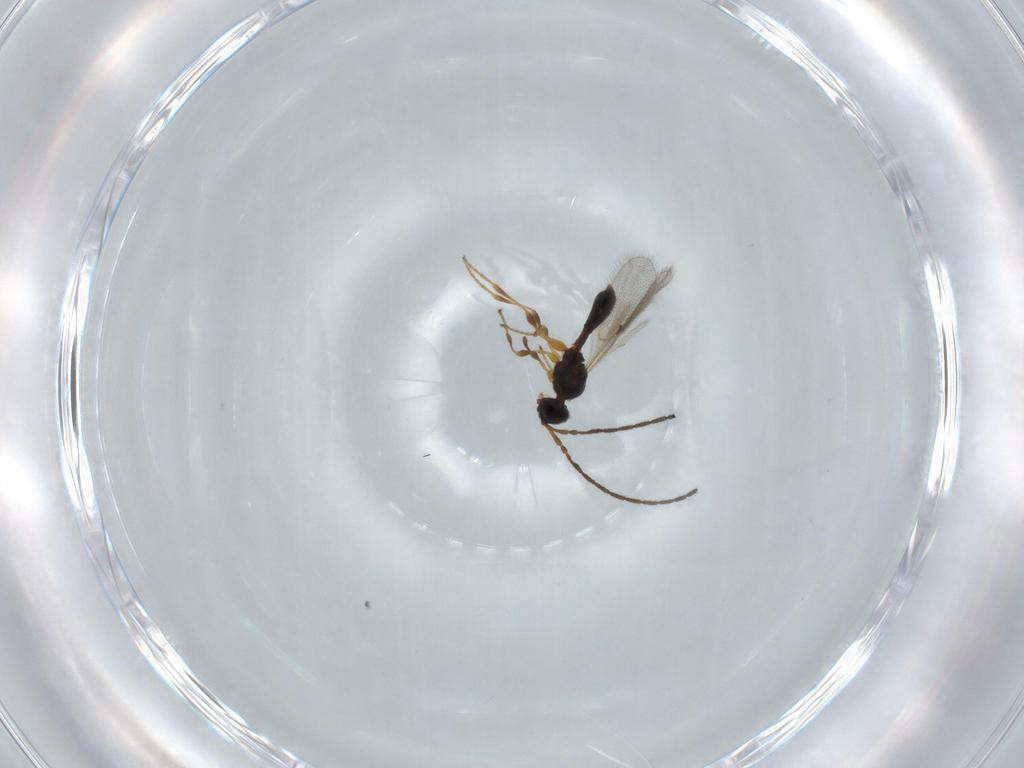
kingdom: Animalia
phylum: Arthropoda
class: Insecta
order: Hymenoptera
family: Diapriidae
